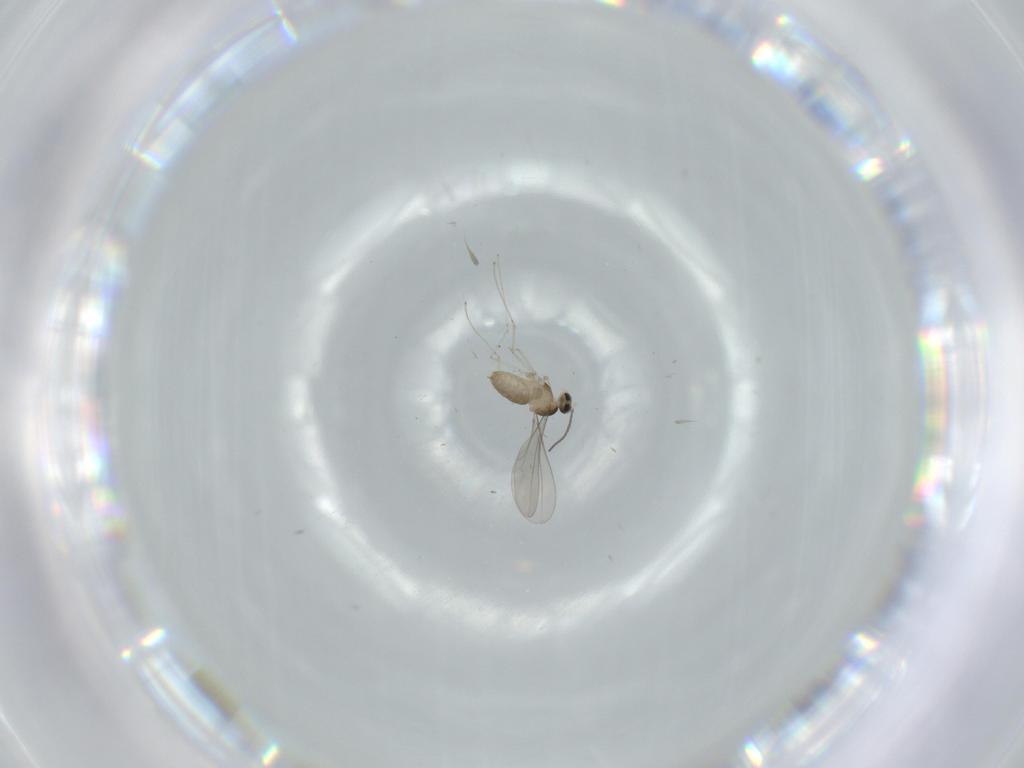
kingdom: Animalia
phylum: Arthropoda
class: Insecta
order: Diptera
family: Cecidomyiidae
